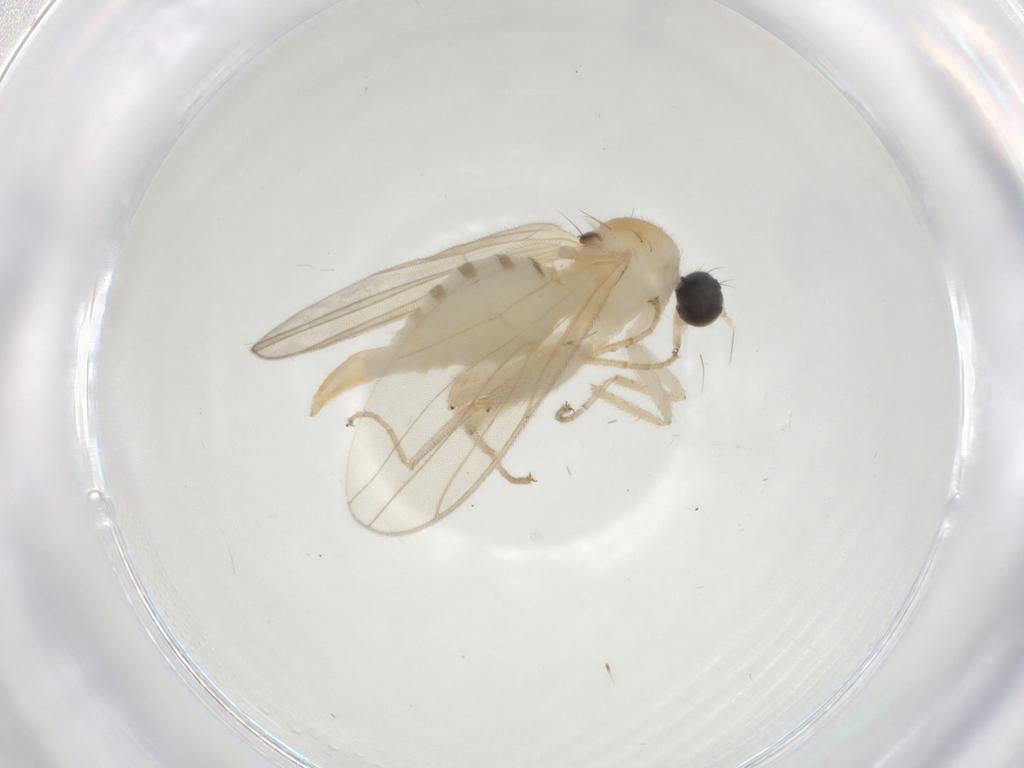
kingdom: Animalia
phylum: Arthropoda
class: Insecta
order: Diptera
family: Hybotidae
